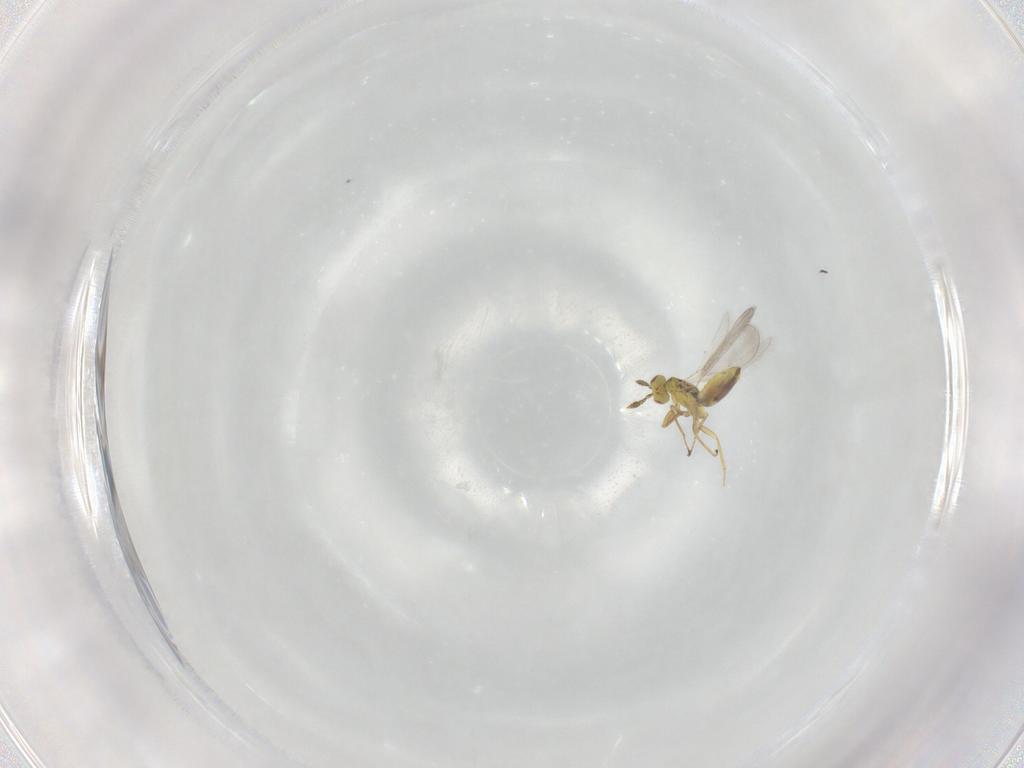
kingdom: Animalia
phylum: Arthropoda
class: Insecta
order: Hymenoptera
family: Eulophidae
